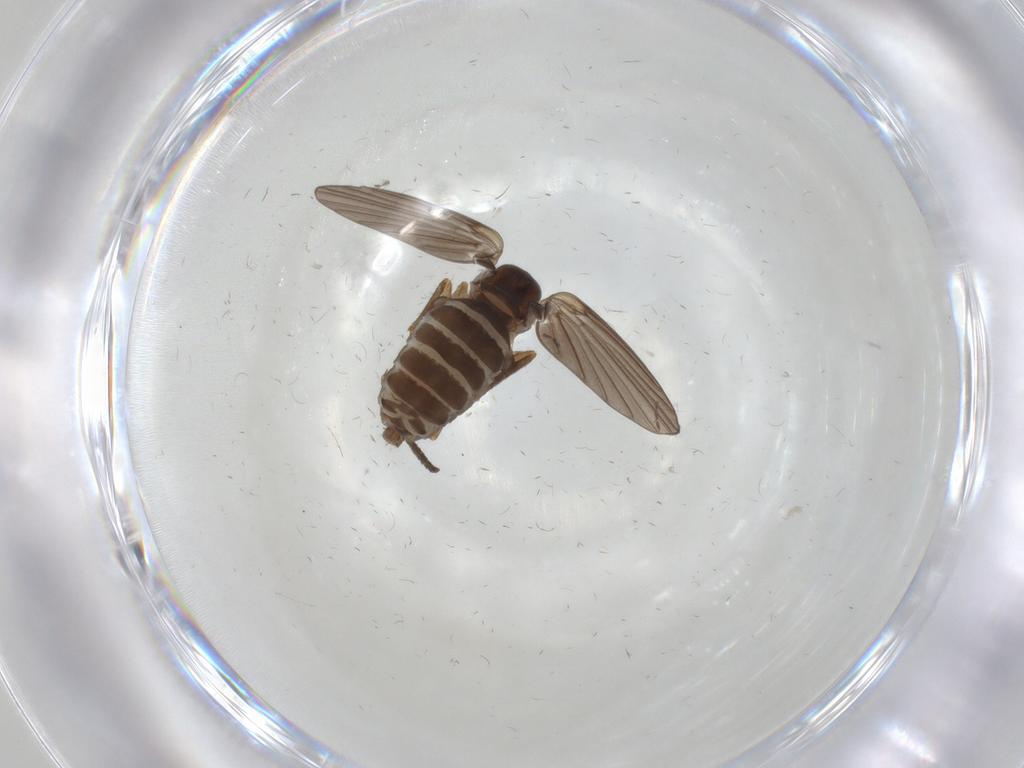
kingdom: Animalia
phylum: Arthropoda
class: Insecta
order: Diptera
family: Psychodidae
